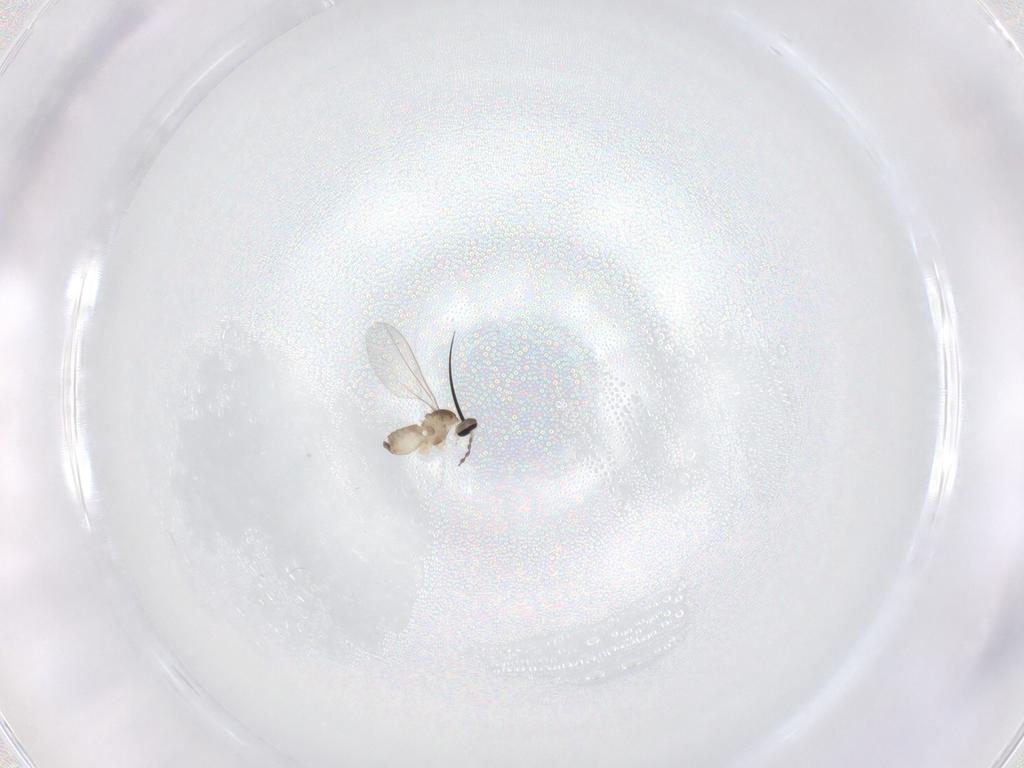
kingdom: Animalia
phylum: Arthropoda
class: Insecta
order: Diptera
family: Cecidomyiidae
